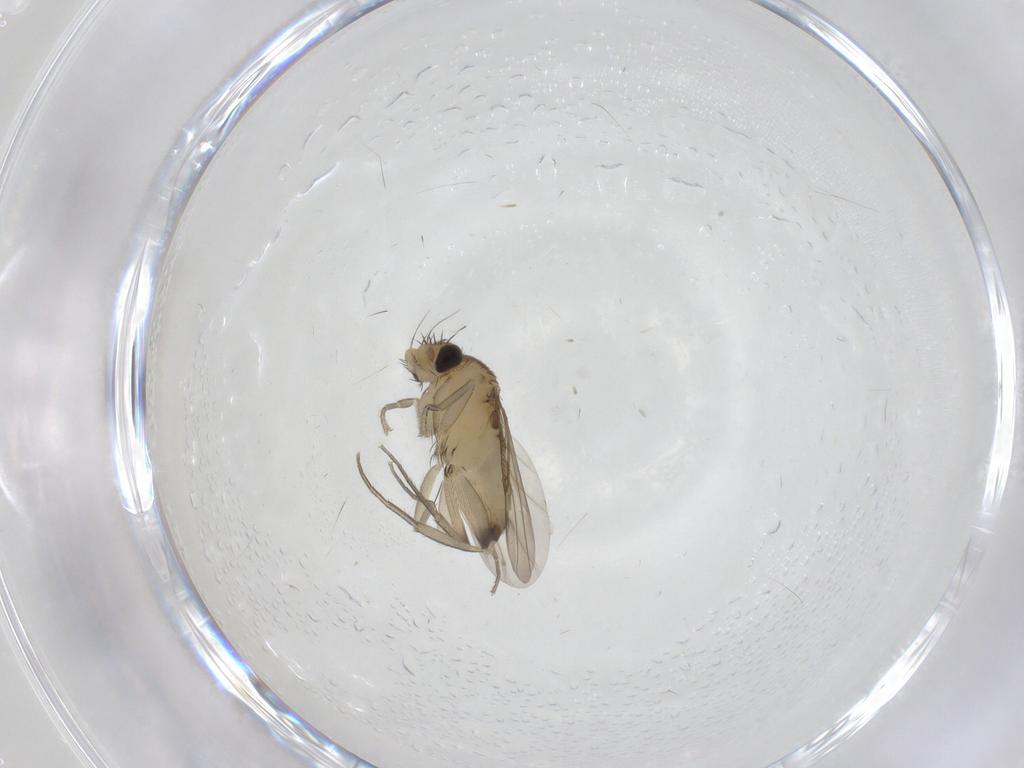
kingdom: Animalia
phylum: Arthropoda
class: Insecta
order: Diptera
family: Phoridae
